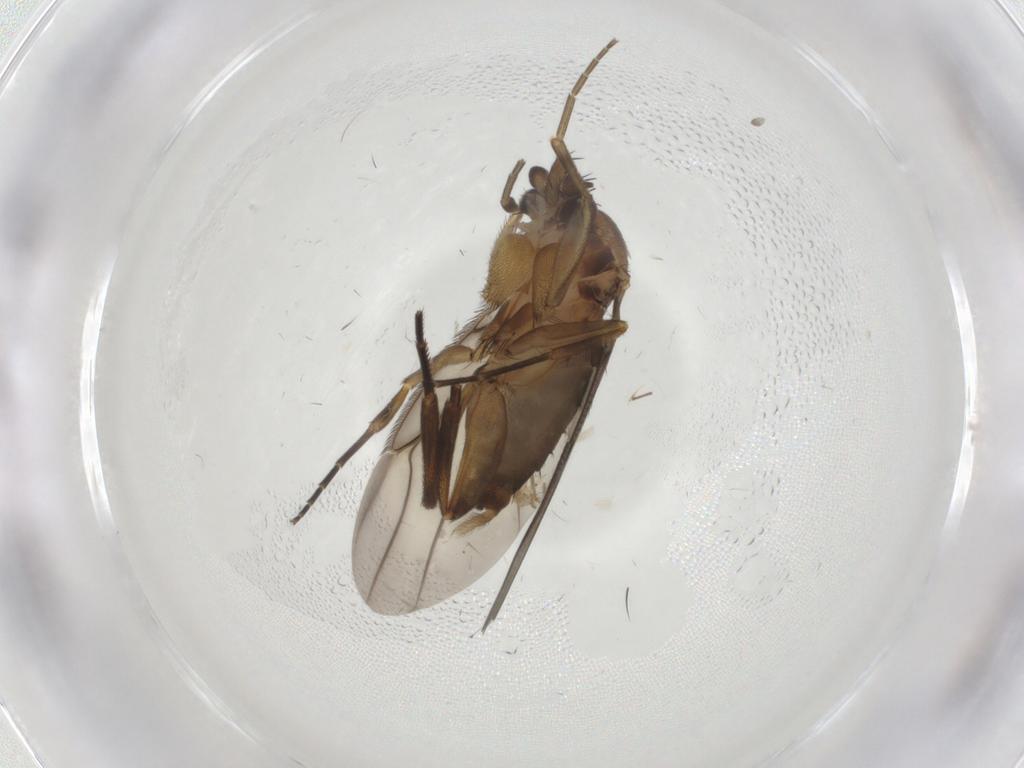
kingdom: Animalia
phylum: Arthropoda
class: Insecta
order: Diptera
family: Phoridae
